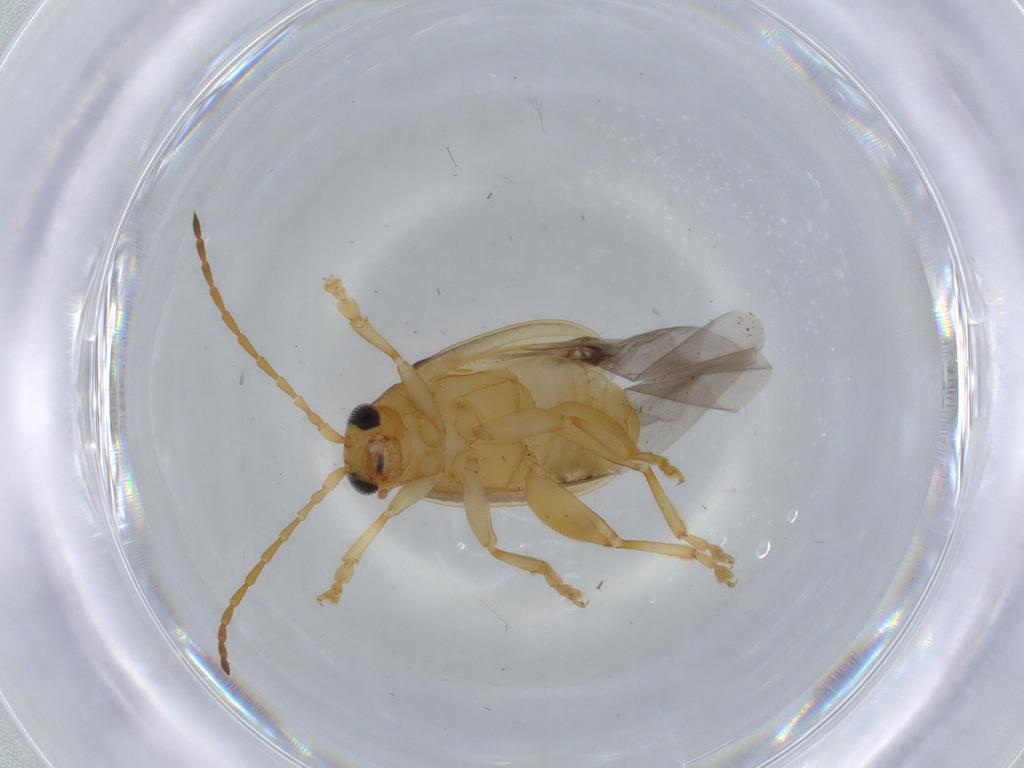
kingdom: Animalia
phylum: Arthropoda
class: Insecta
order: Coleoptera
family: Chrysomelidae
